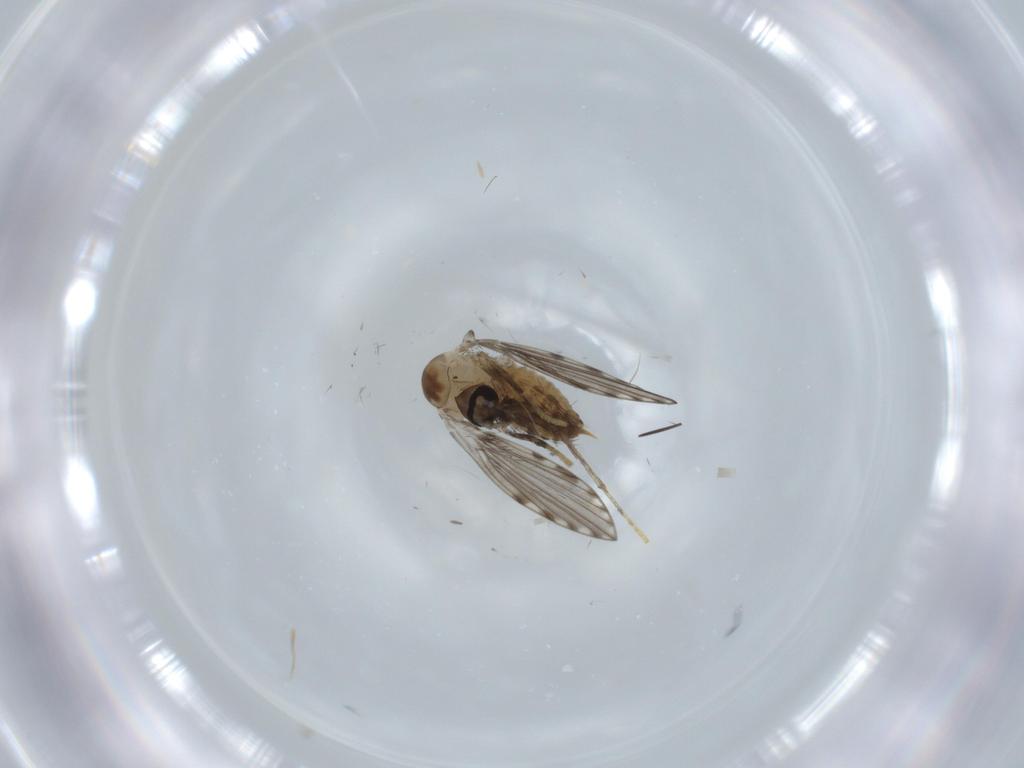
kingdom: Animalia
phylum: Arthropoda
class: Insecta
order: Diptera
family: Psychodidae
